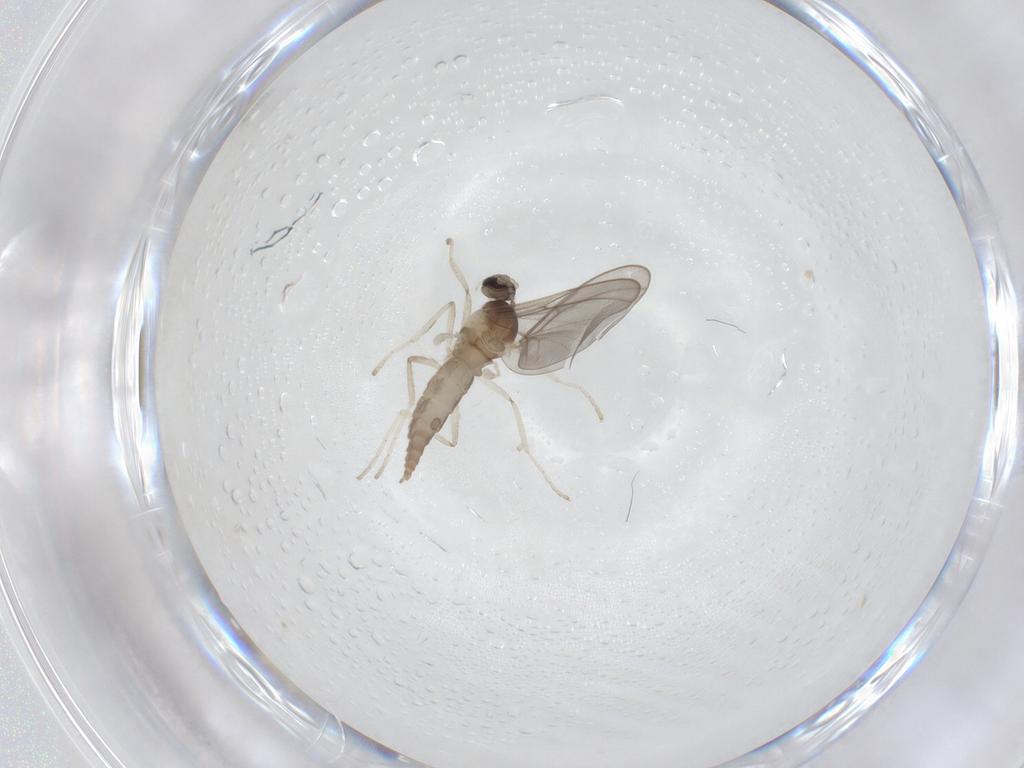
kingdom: Animalia
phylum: Arthropoda
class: Insecta
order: Diptera
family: Cecidomyiidae
